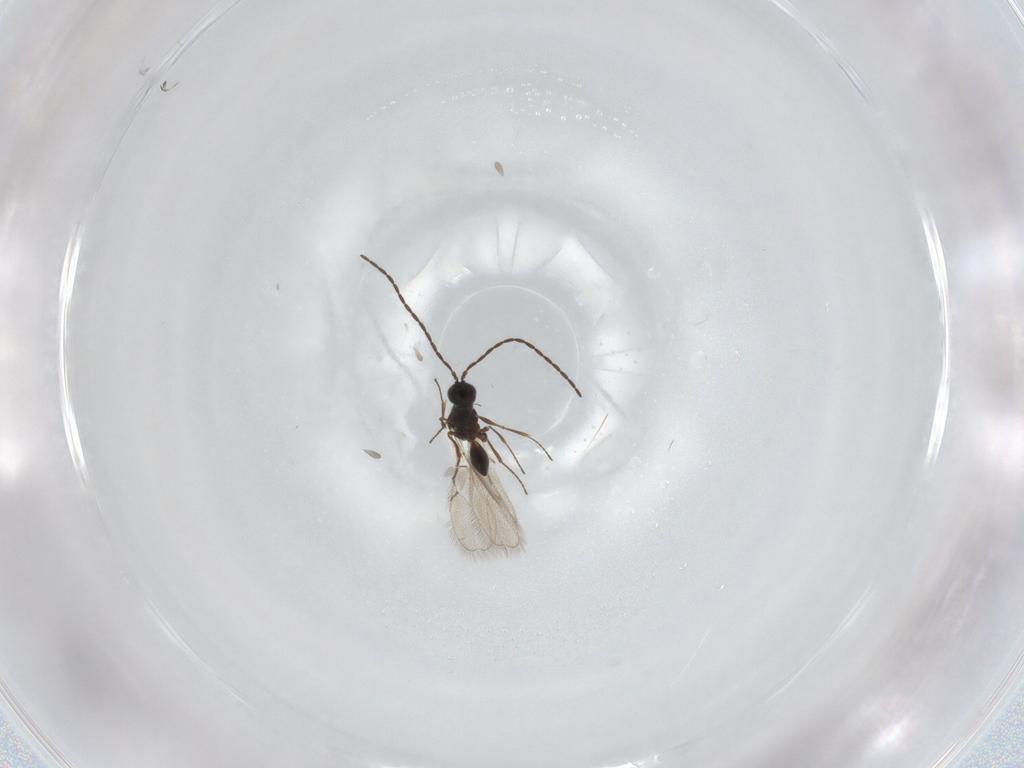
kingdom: Animalia
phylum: Arthropoda
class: Insecta
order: Hymenoptera
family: Figitidae
